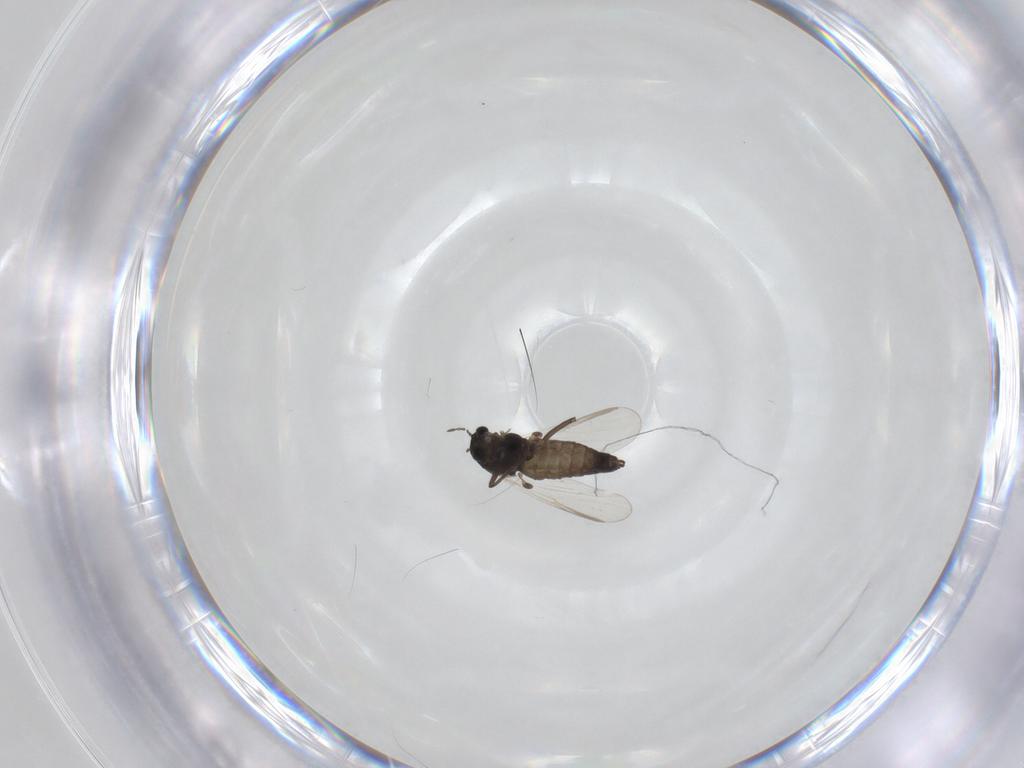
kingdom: Animalia
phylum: Arthropoda
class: Insecta
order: Diptera
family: Chironomidae
